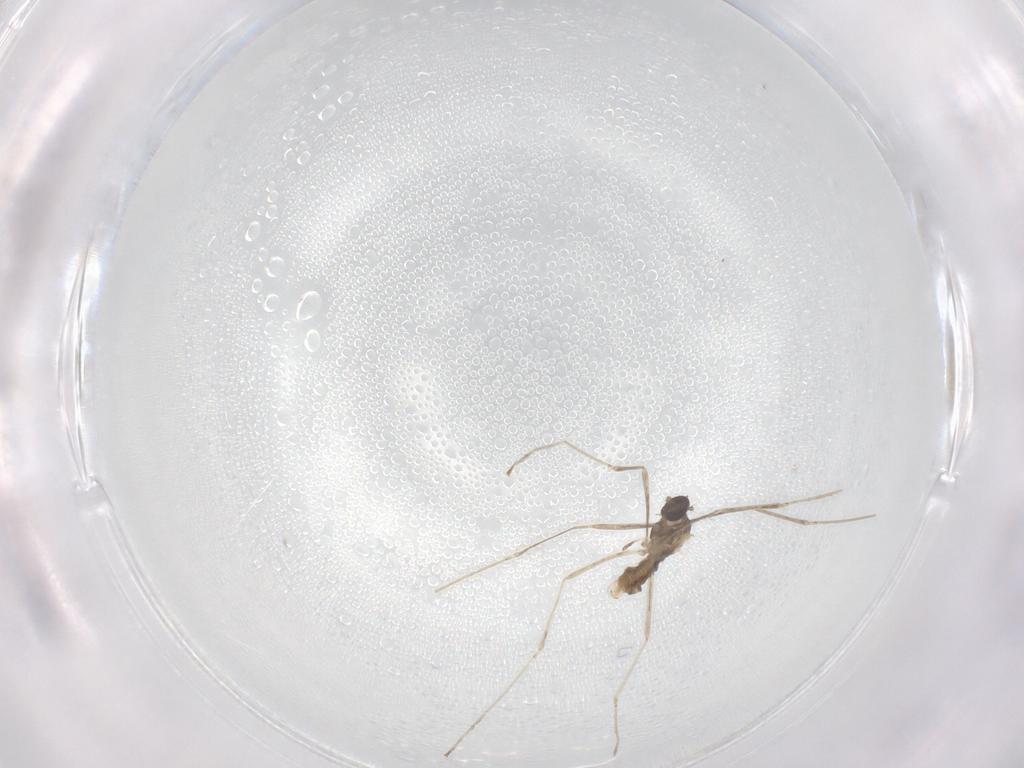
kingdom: Animalia
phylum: Arthropoda
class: Insecta
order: Diptera
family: Cecidomyiidae
